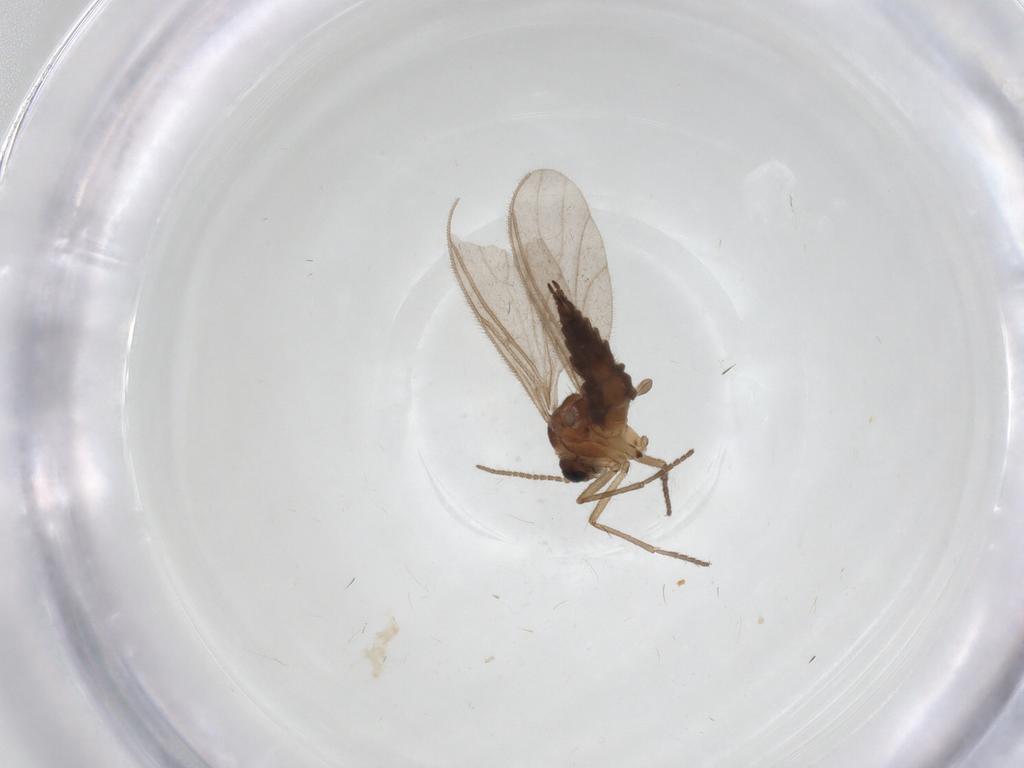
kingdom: Animalia
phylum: Arthropoda
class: Insecta
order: Diptera
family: Sciaridae
